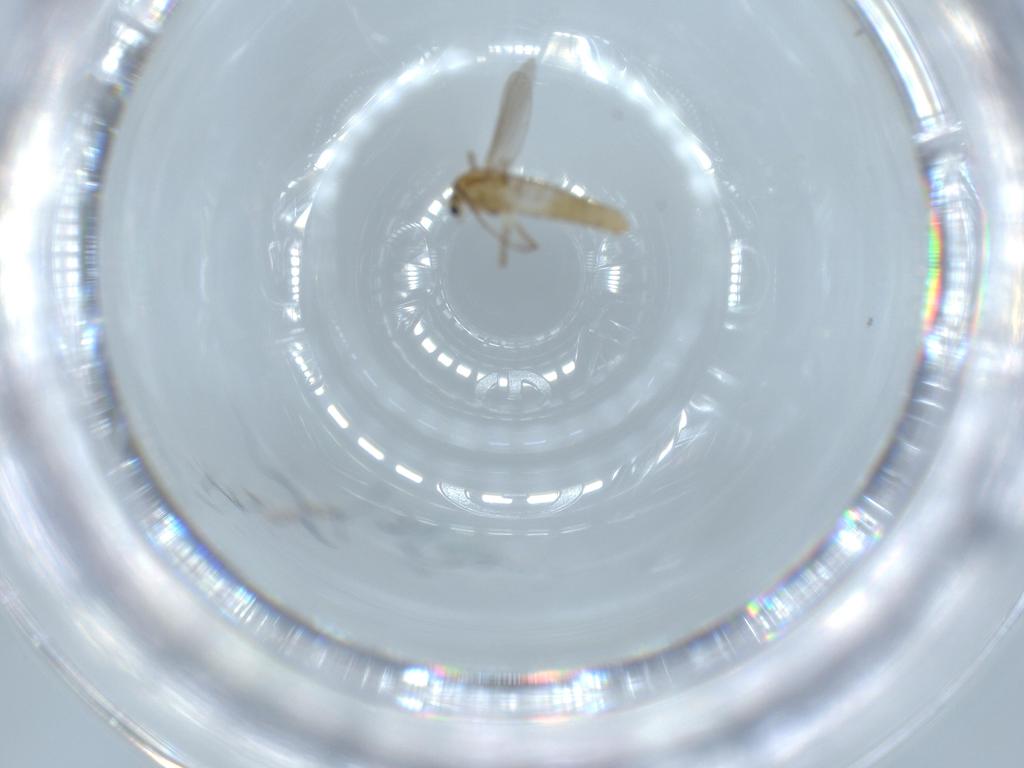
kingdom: Animalia
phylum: Arthropoda
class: Insecta
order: Diptera
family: Cecidomyiidae
